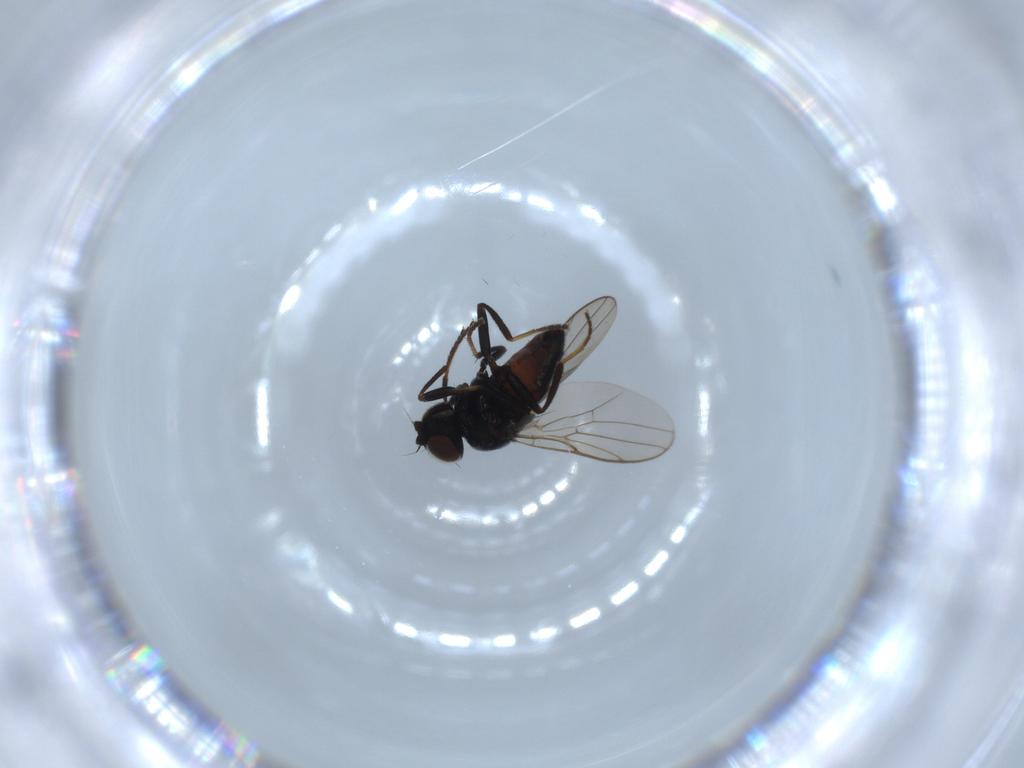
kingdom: Animalia
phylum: Arthropoda
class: Insecta
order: Diptera
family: Chloropidae
